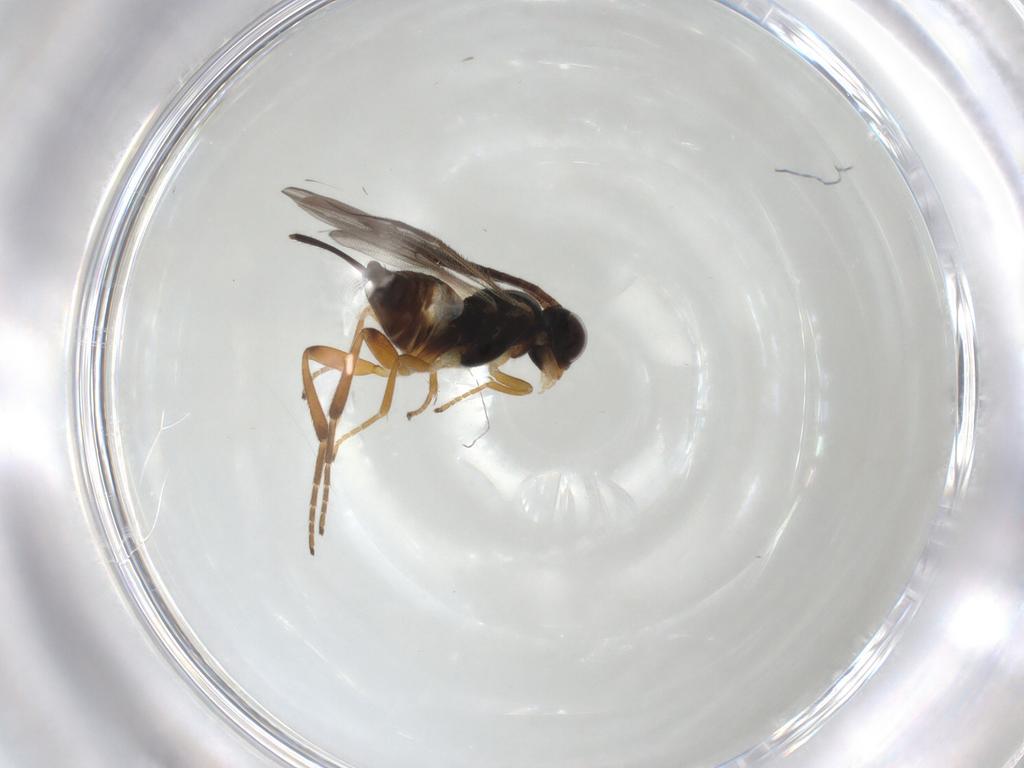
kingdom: Animalia
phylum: Arthropoda
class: Insecta
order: Hymenoptera
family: Braconidae
